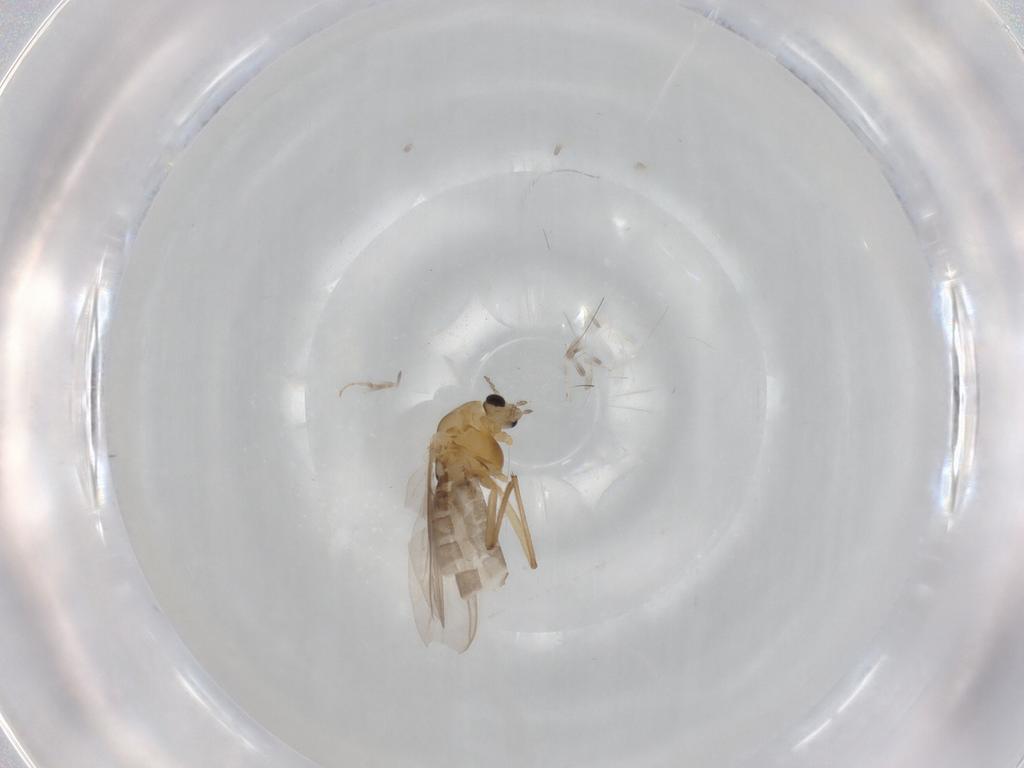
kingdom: Animalia
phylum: Arthropoda
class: Insecta
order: Diptera
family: Chironomidae
